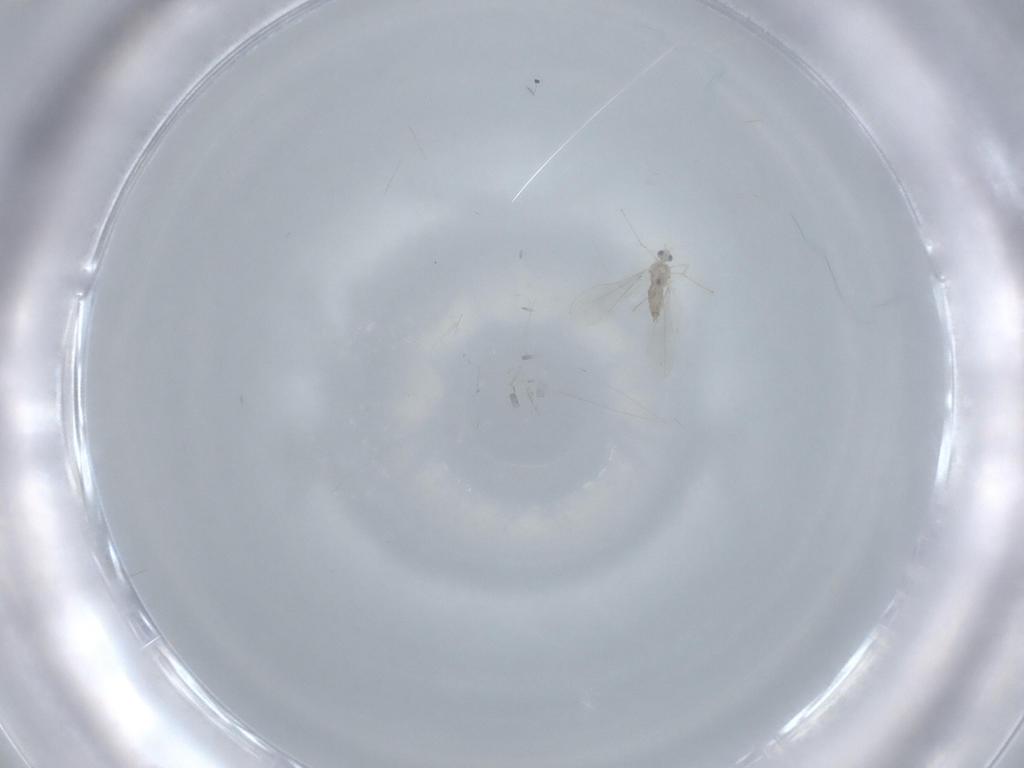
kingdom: Animalia
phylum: Arthropoda
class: Insecta
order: Diptera
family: Cecidomyiidae
